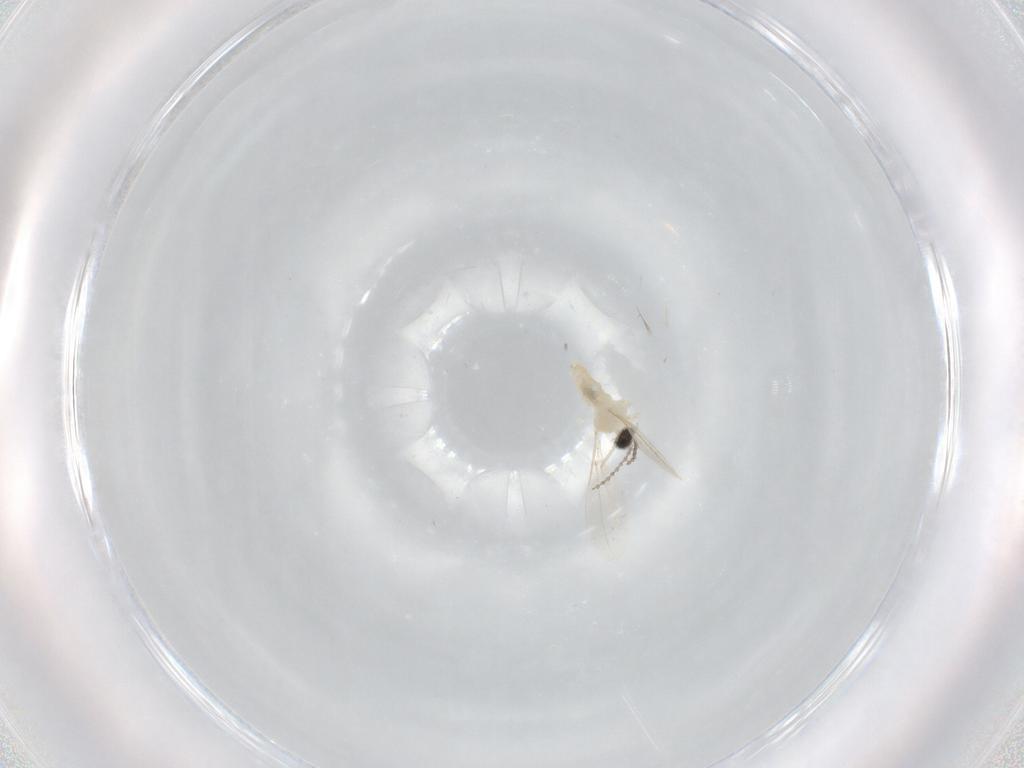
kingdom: Animalia
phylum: Arthropoda
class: Insecta
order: Diptera
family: Cecidomyiidae
